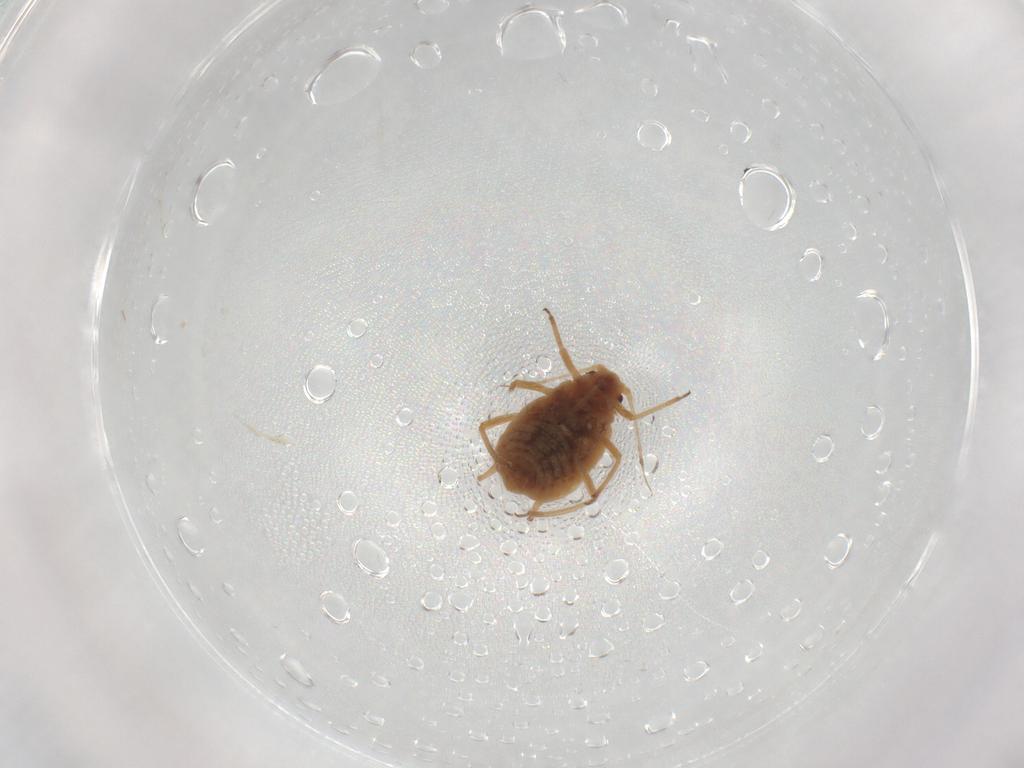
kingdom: Animalia
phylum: Arthropoda
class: Insecta
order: Hemiptera
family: Aphididae
